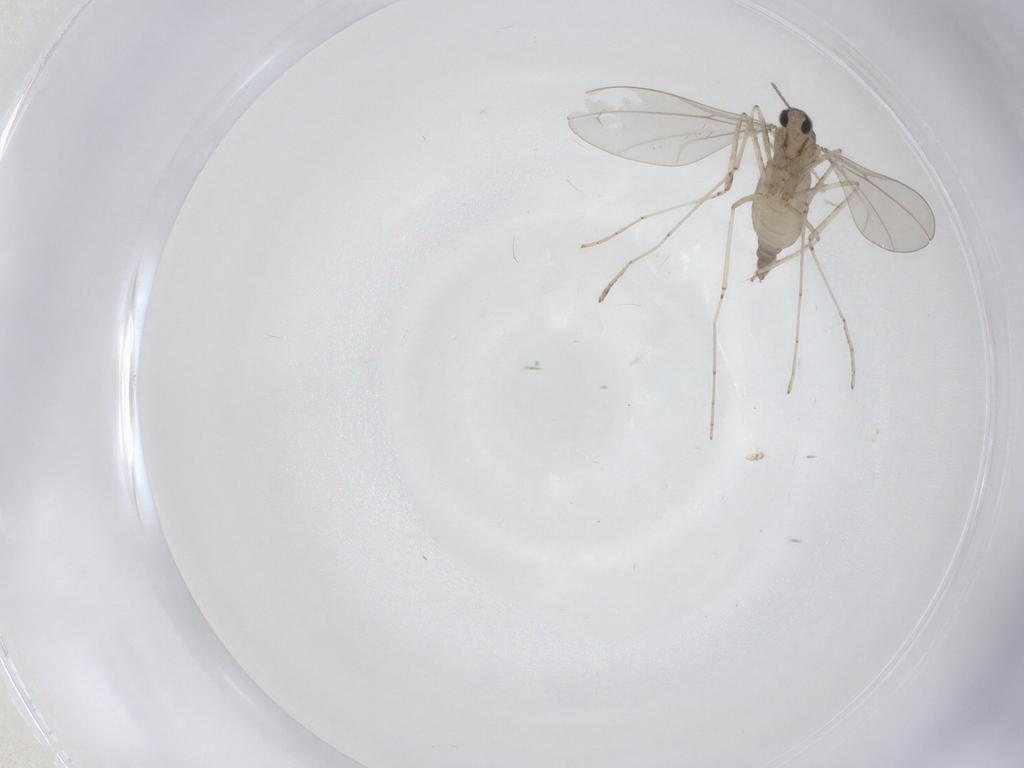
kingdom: Animalia
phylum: Arthropoda
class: Insecta
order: Diptera
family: Cecidomyiidae
